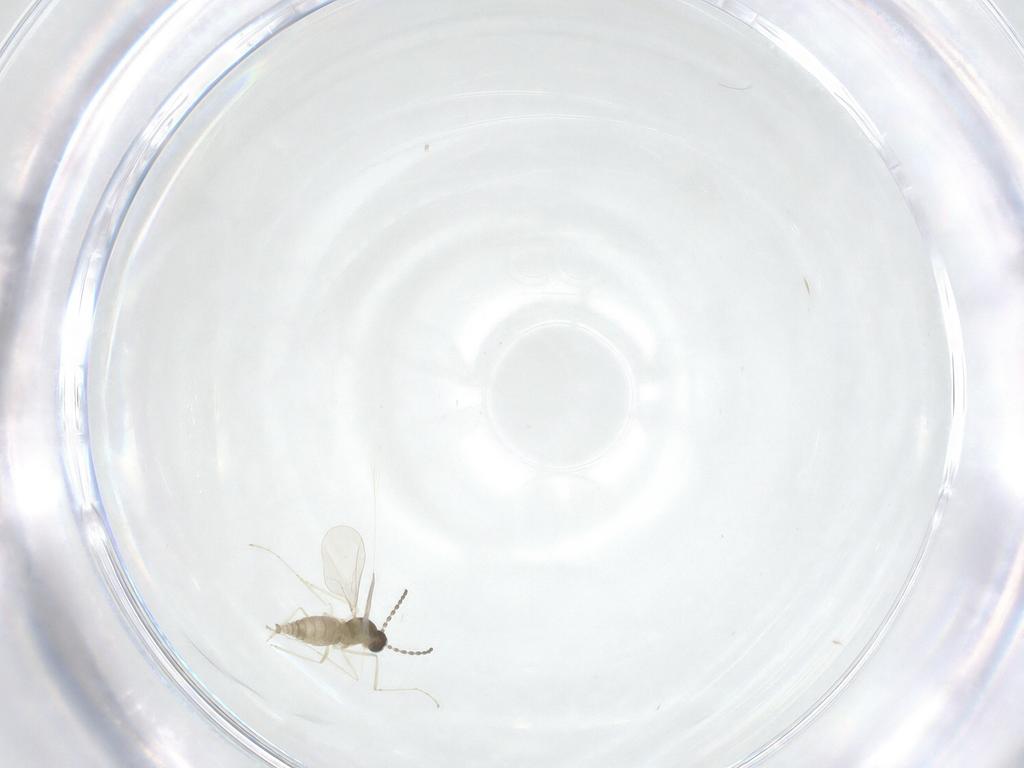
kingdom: Animalia
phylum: Arthropoda
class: Insecta
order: Diptera
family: Cecidomyiidae
